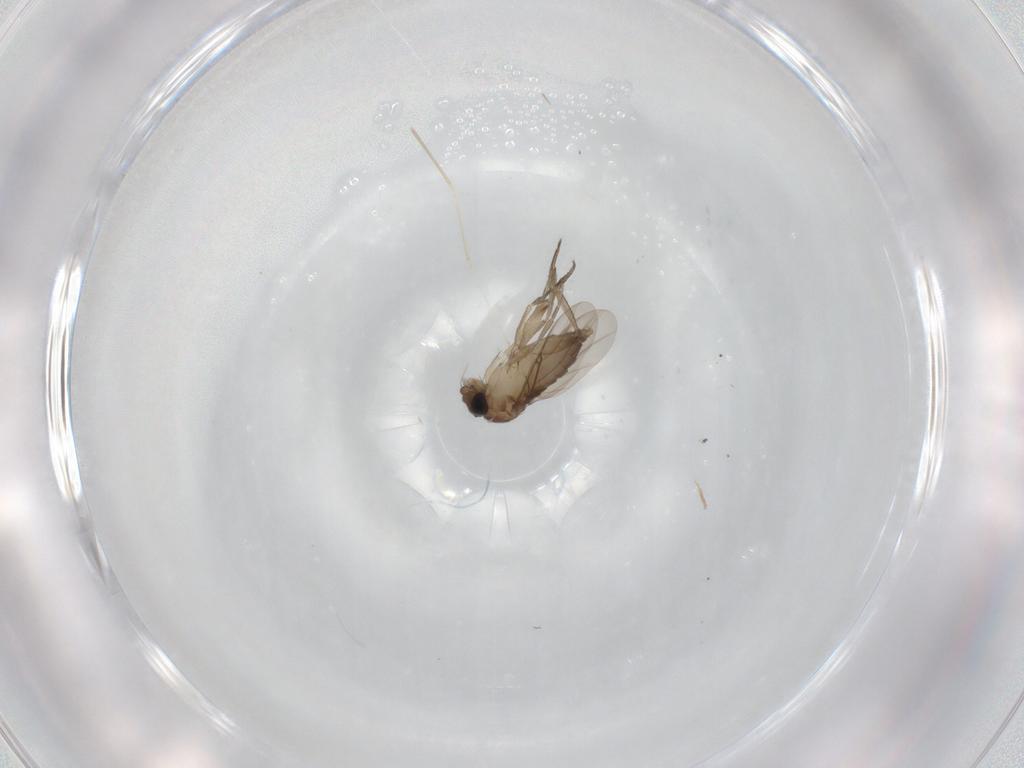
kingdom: Animalia
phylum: Arthropoda
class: Insecta
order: Diptera
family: Phoridae
